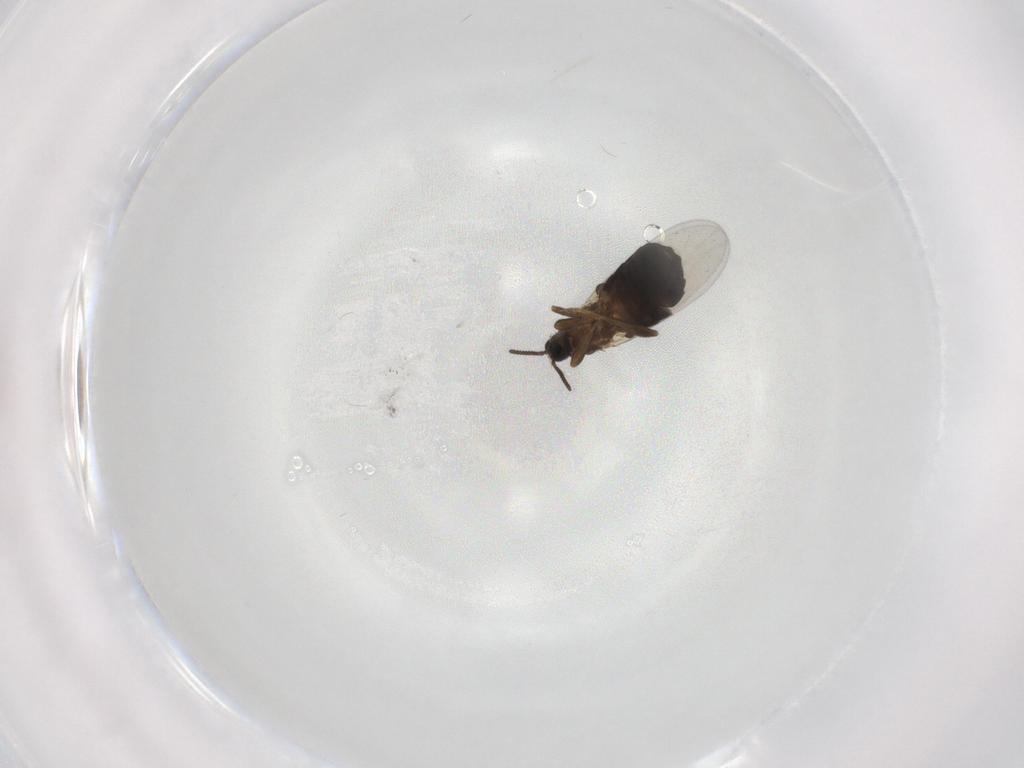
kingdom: Animalia
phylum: Arthropoda
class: Insecta
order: Diptera
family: Scatopsidae
